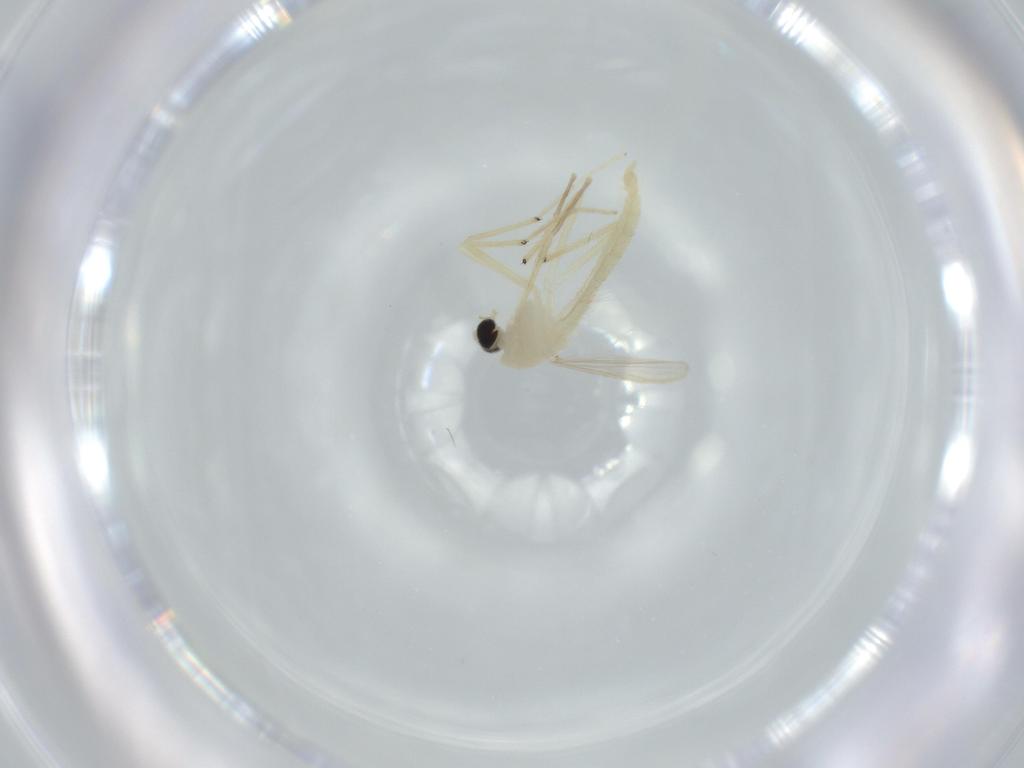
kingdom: Animalia
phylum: Arthropoda
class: Insecta
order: Diptera
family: Chironomidae
